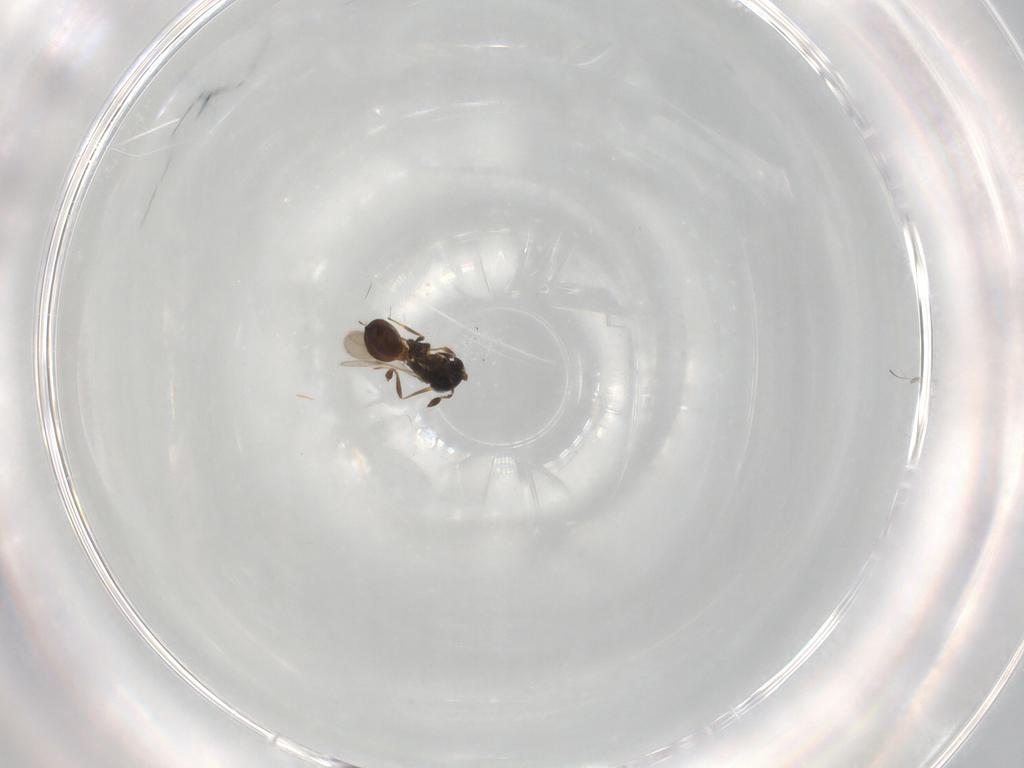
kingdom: Animalia
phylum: Arthropoda
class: Insecta
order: Hymenoptera
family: Scelionidae
